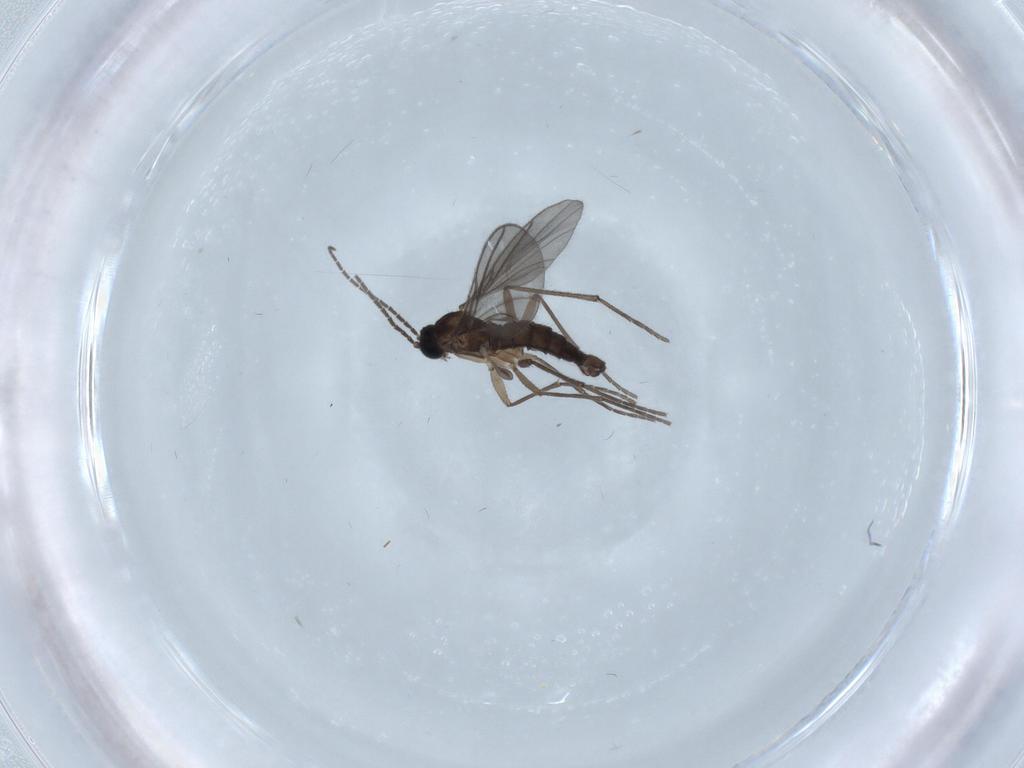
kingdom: Animalia
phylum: Arthropoda
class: Insecta
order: Diptera
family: Sciaridae
